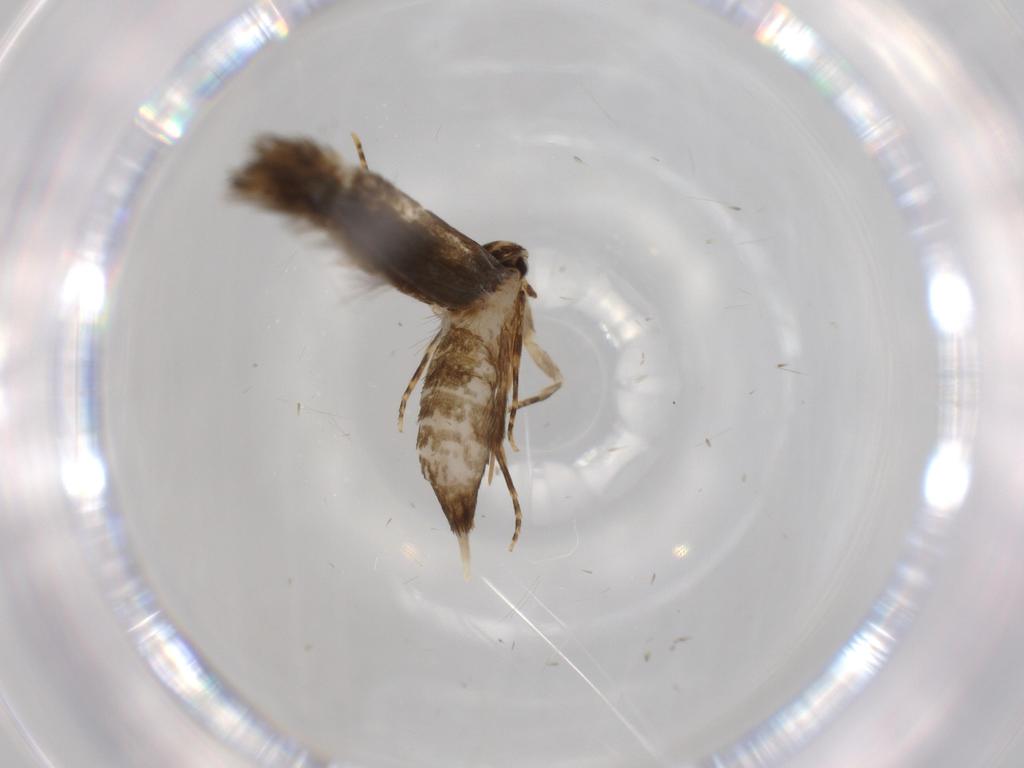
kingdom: Animalia
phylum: Arthropoda
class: Insecta
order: Lepidoptera
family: Tineidae
